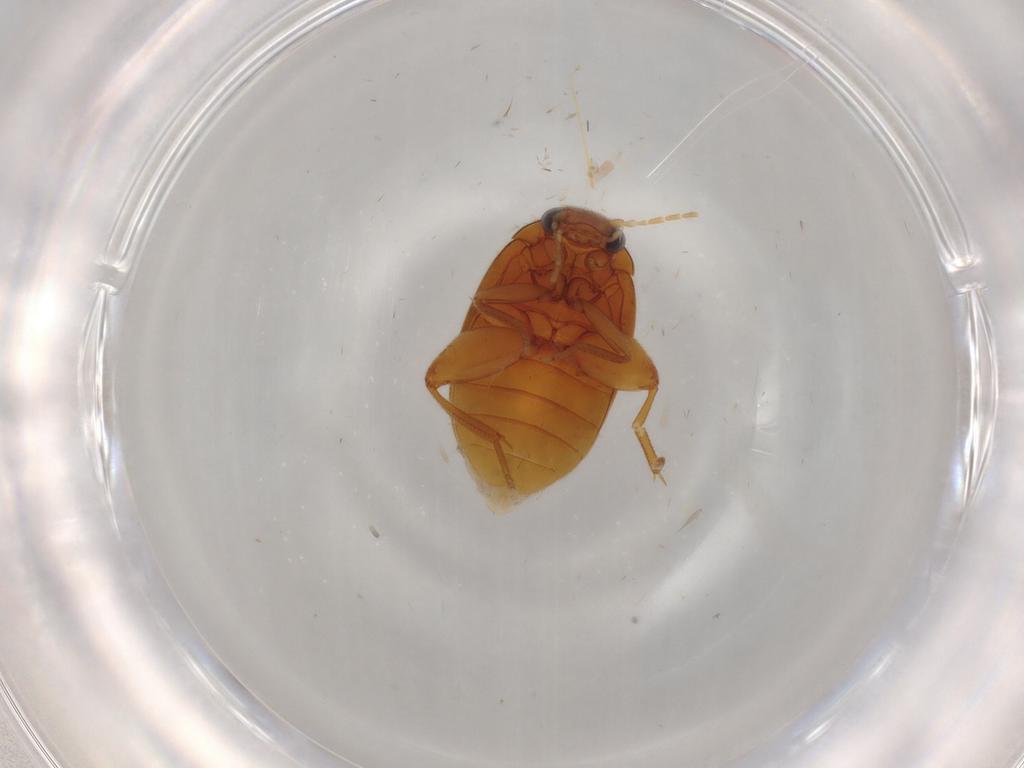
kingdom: Animalia
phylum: Arthropoda
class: Insecta
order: Coleoptera
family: Scirtidae
